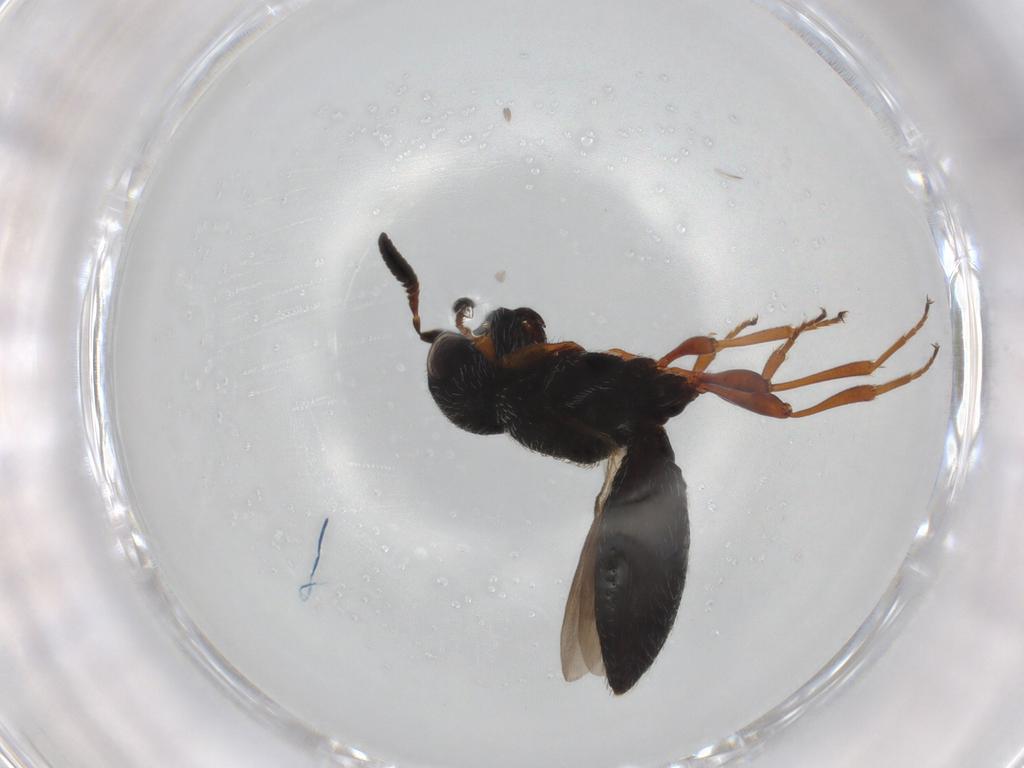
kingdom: Animalia
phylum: Arthropoda
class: Insecta
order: Hymenoptera
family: Scelionidae
